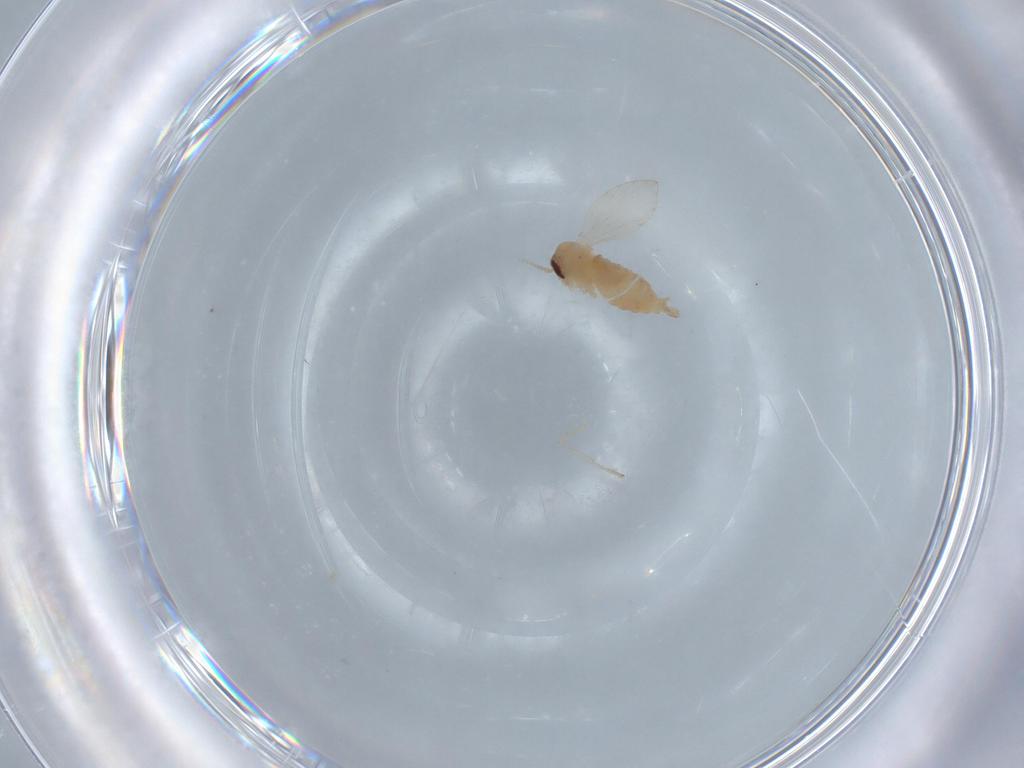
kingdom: Animalia
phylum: Arthropoda
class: Insecta
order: Diptera
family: Psychodidae
